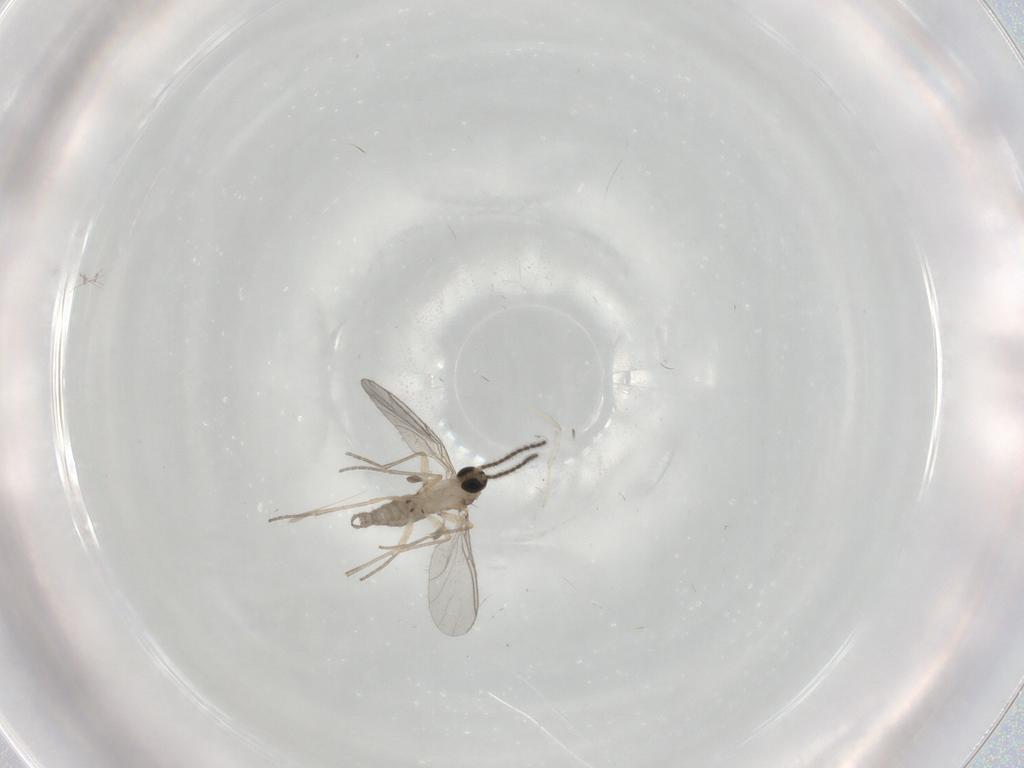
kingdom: Animalia
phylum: Arthropoda
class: Insecta
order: Diptera
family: Sciaridae
